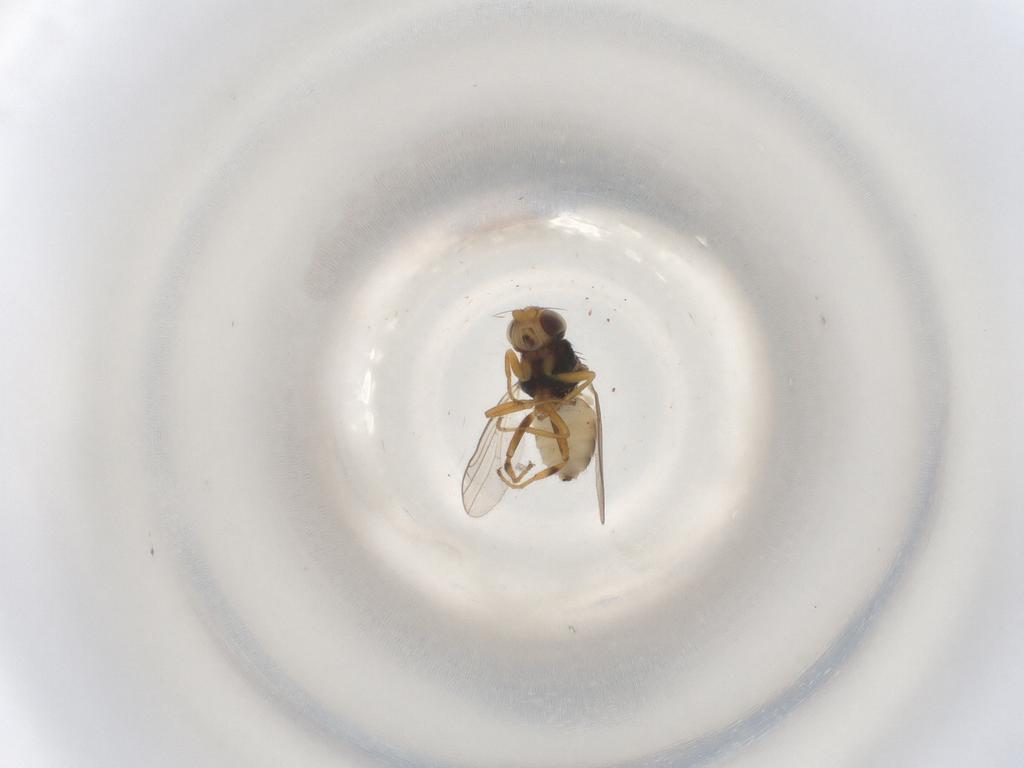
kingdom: Animalia
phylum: Arthropoda
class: Insecta
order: Diptera
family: Chloropidae
